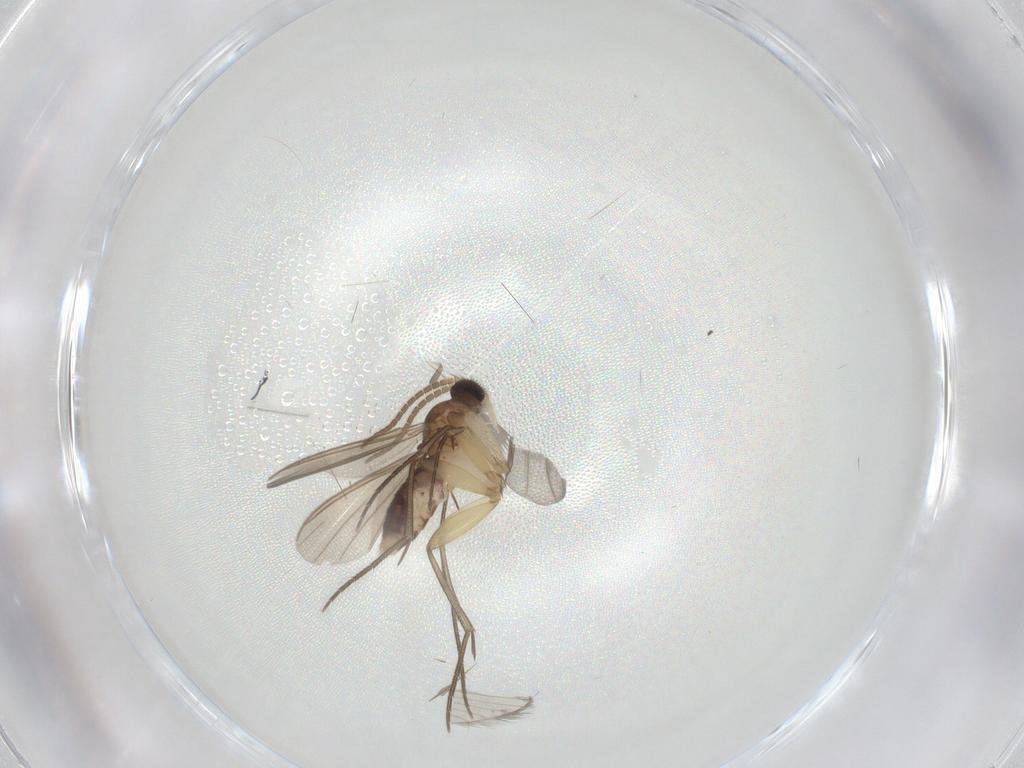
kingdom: Animalia
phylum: Arthropoda
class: Insecta
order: Diptera
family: Mycetophilidae
